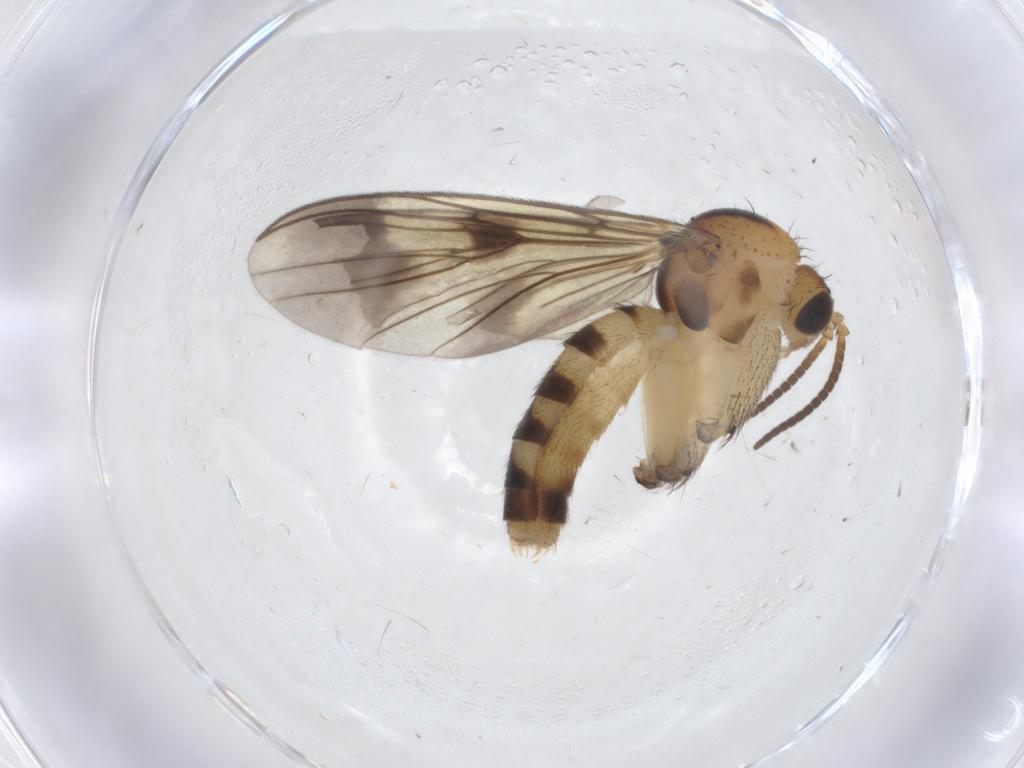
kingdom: Animalia
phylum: Arthropoda
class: Insecta
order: Diptera
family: Mycetophilidae
